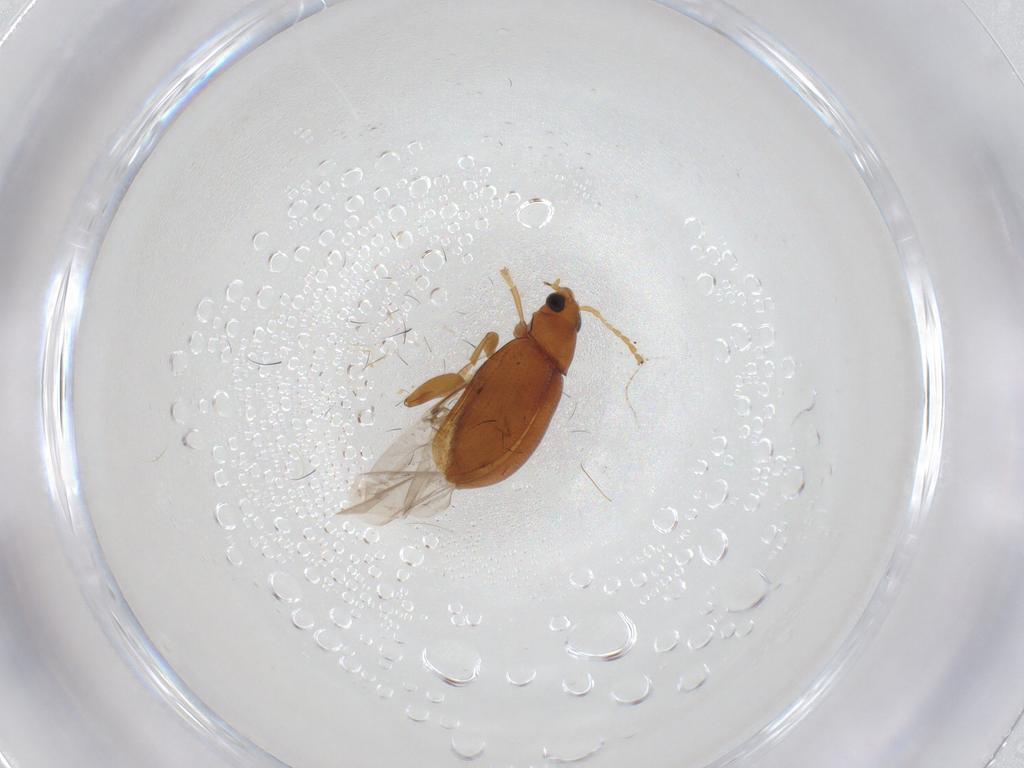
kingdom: Animalia
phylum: Arthropoda
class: Insecta
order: Coleoptera
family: Chrysomelidae
